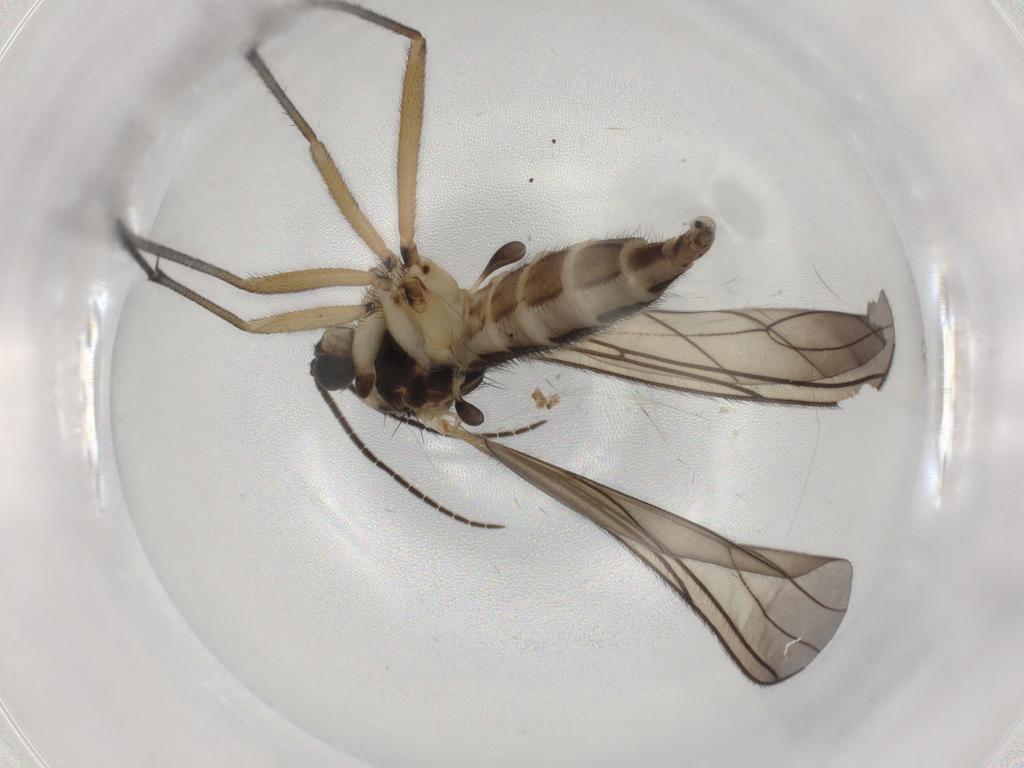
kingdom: Animalia
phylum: Arthropoda
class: Insecta
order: Diptera
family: Sciaridae
